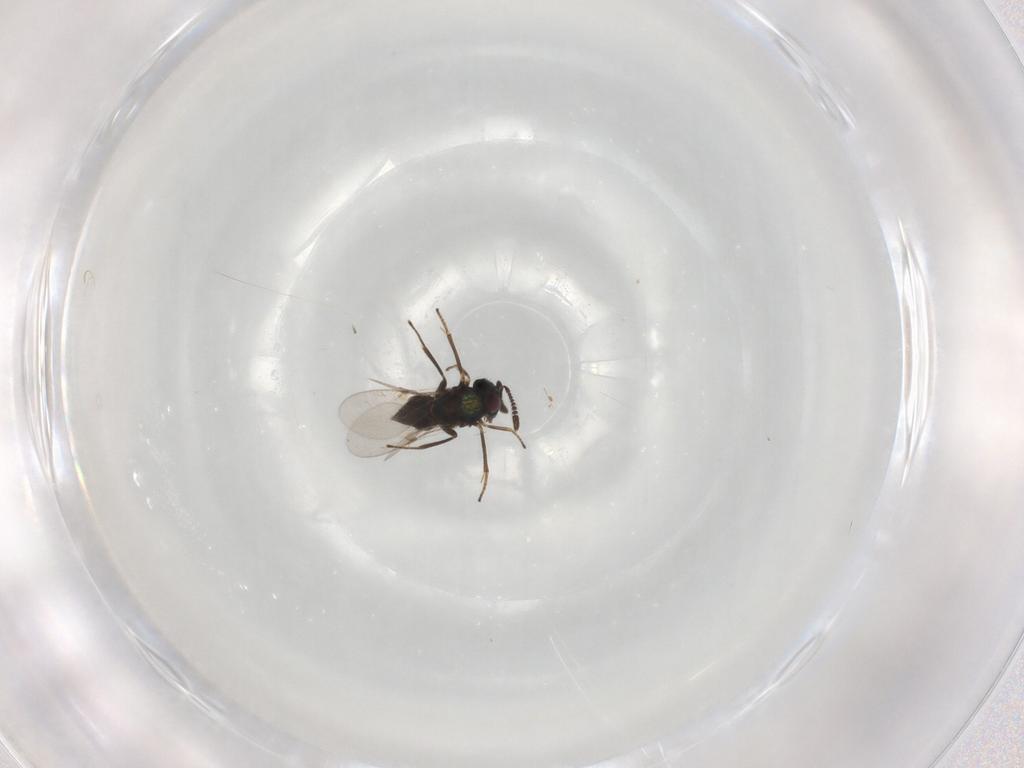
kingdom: Animalia
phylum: Arthropoda
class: Insecta
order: Hymenoptera
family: Encyrtidae
